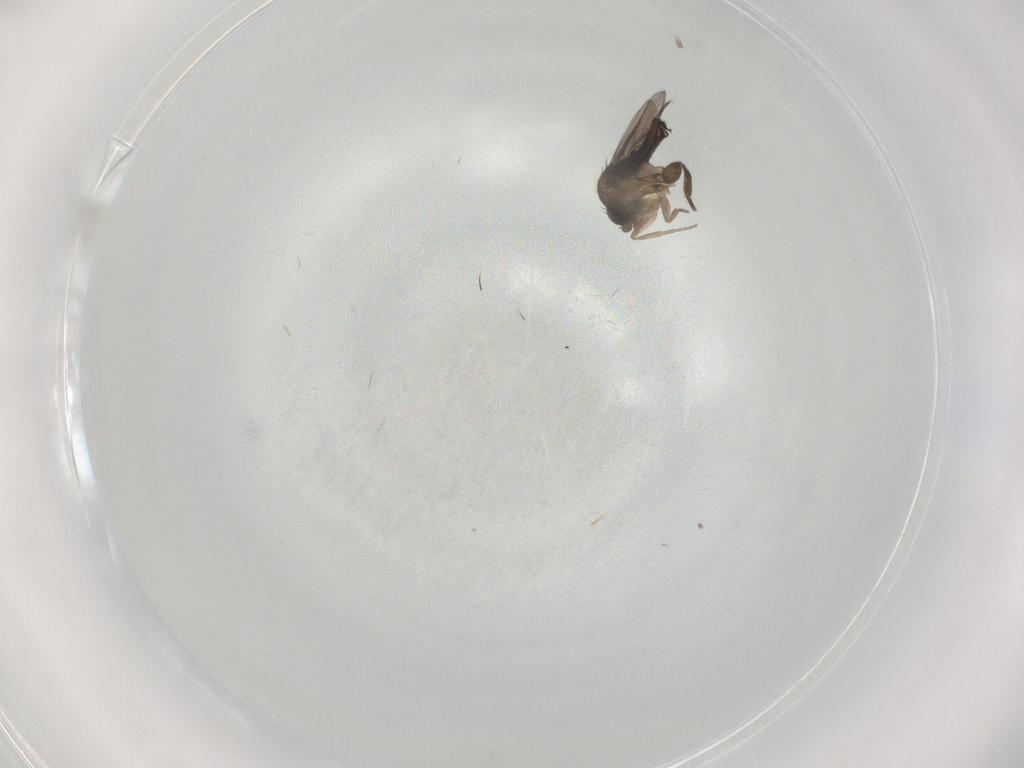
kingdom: Animalia
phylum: Arthropoda
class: Insecta
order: Diptera
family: Phoridae
